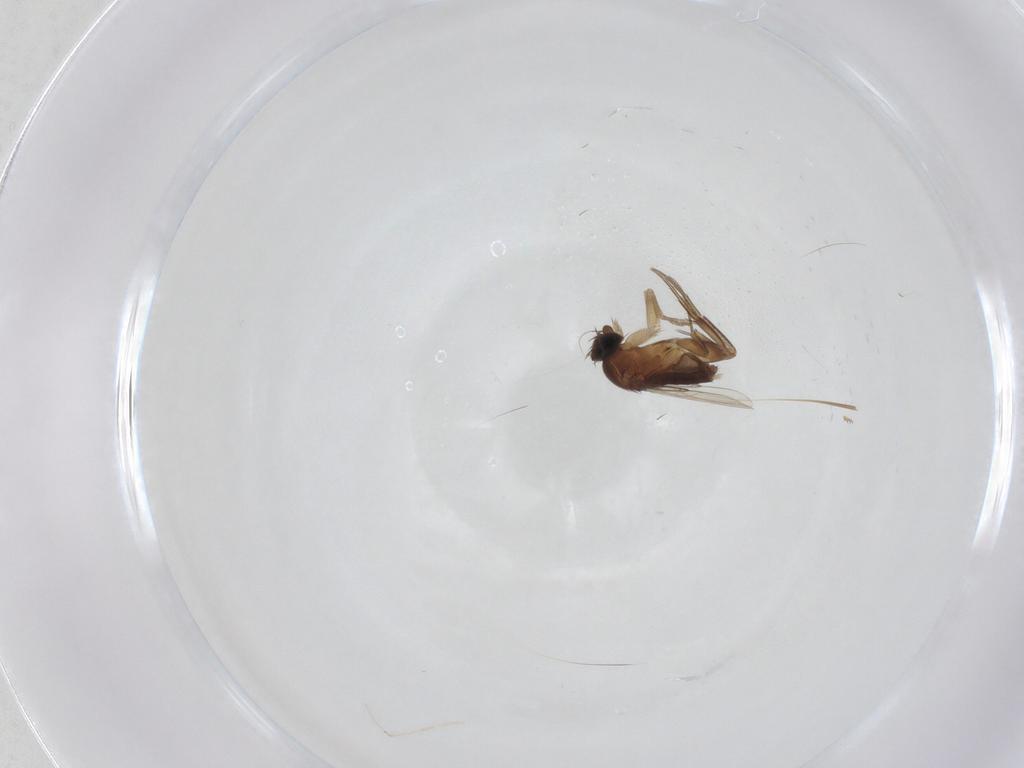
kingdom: Animalia
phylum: Arthropoda
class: Insecta
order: Diptera
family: Cecidomyiidae
